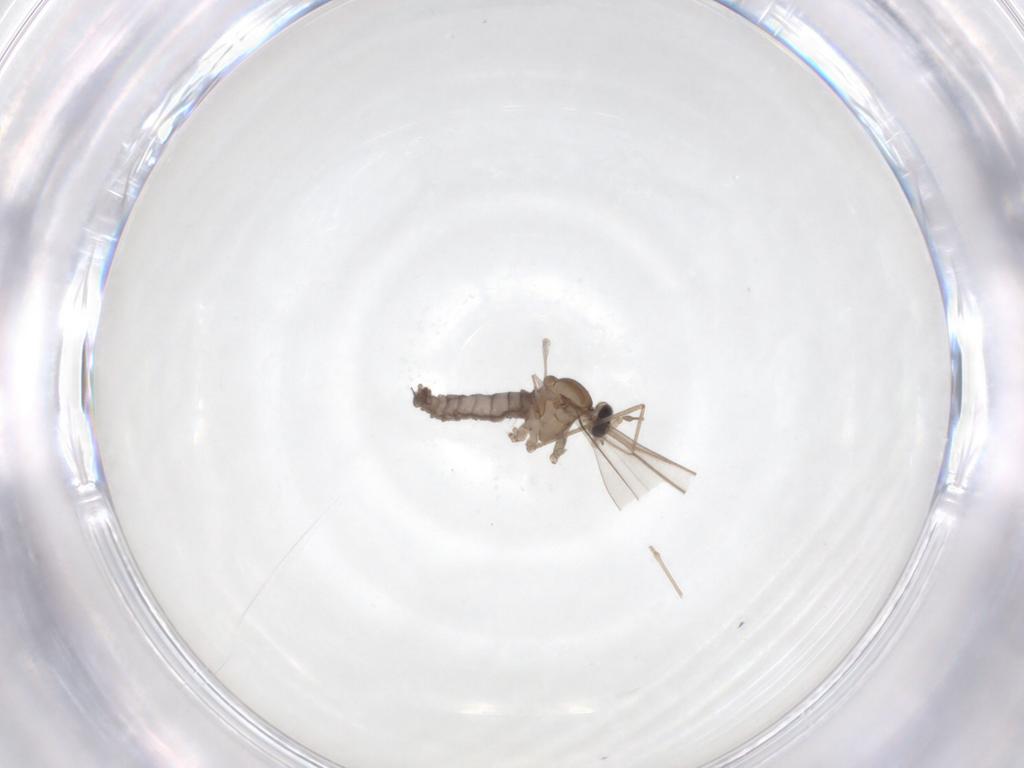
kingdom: Animalia
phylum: Arthropoda
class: Insecta
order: Diptera
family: Cecidomyiidae
